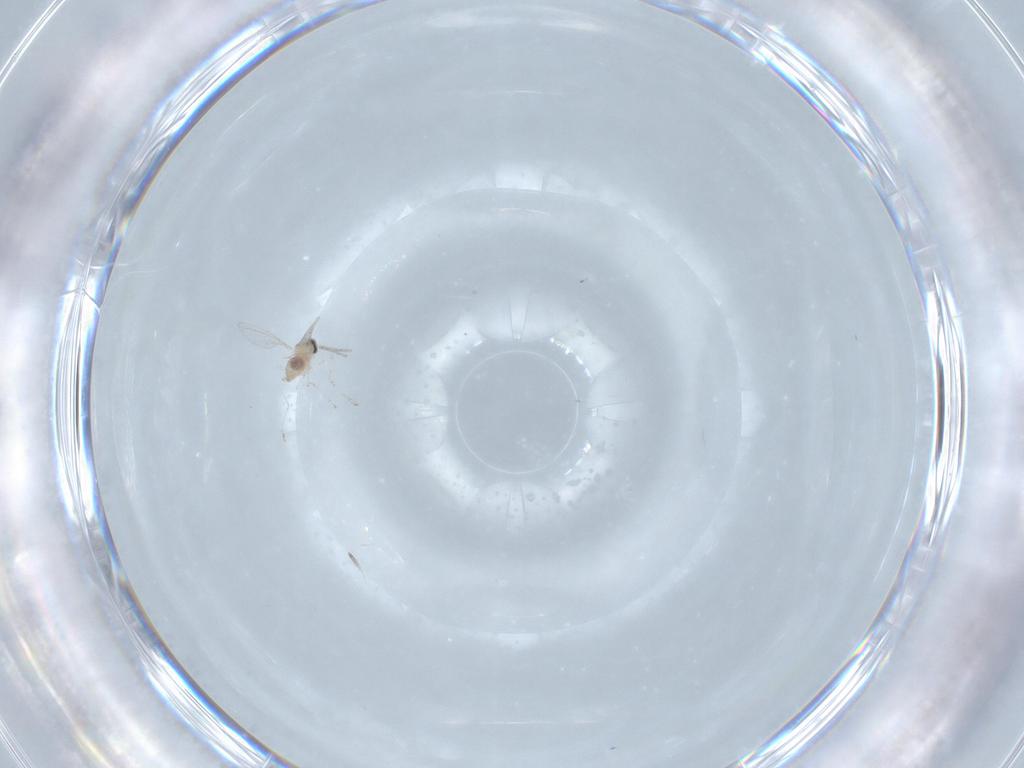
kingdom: Animalia
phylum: Arthropoda
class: Insecta
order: Diptera
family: Cecidomyiidae
